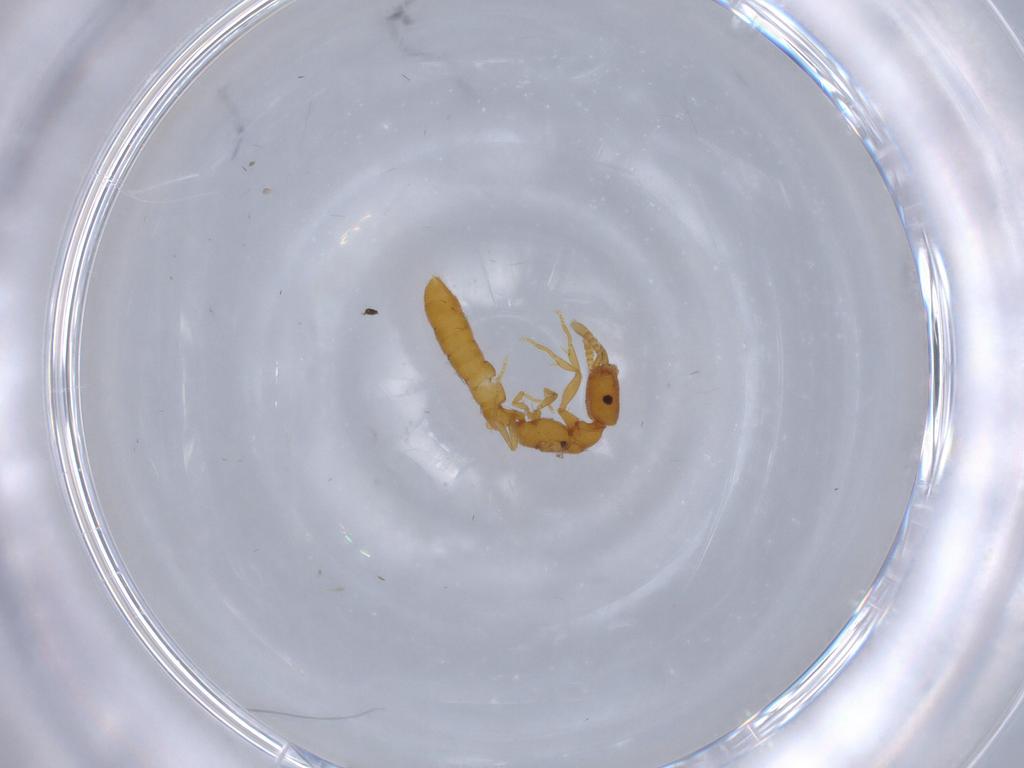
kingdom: Animalia
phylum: Arthropoda
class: Insecta
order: Hymenoptera
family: Formicidae
